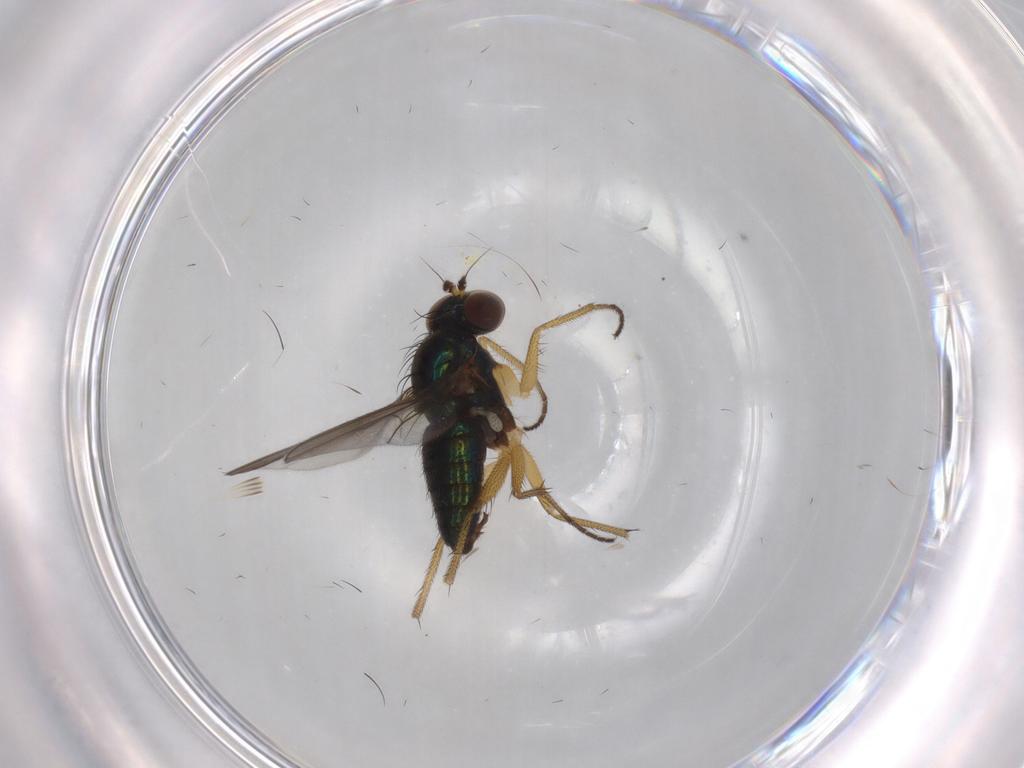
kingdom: Animalia
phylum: Arthropoda
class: Insecta
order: Diptera
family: Dolichopodidae
